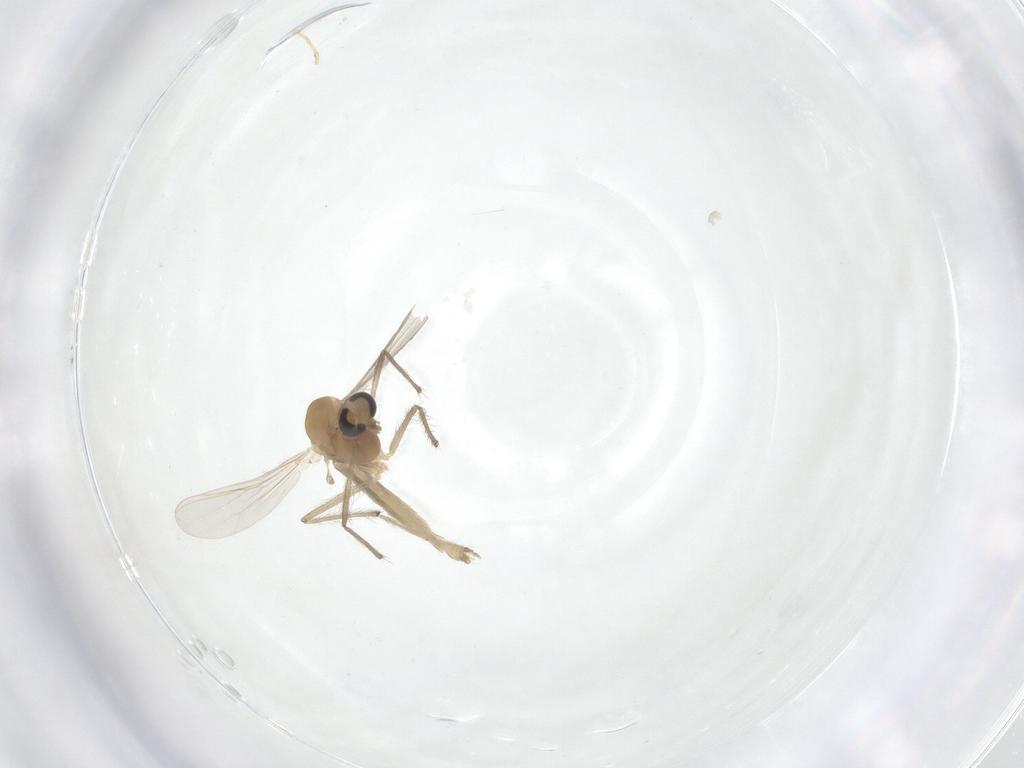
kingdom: Animalia
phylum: Arthropoda
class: Insecta
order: Diptera
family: Chironomidae
